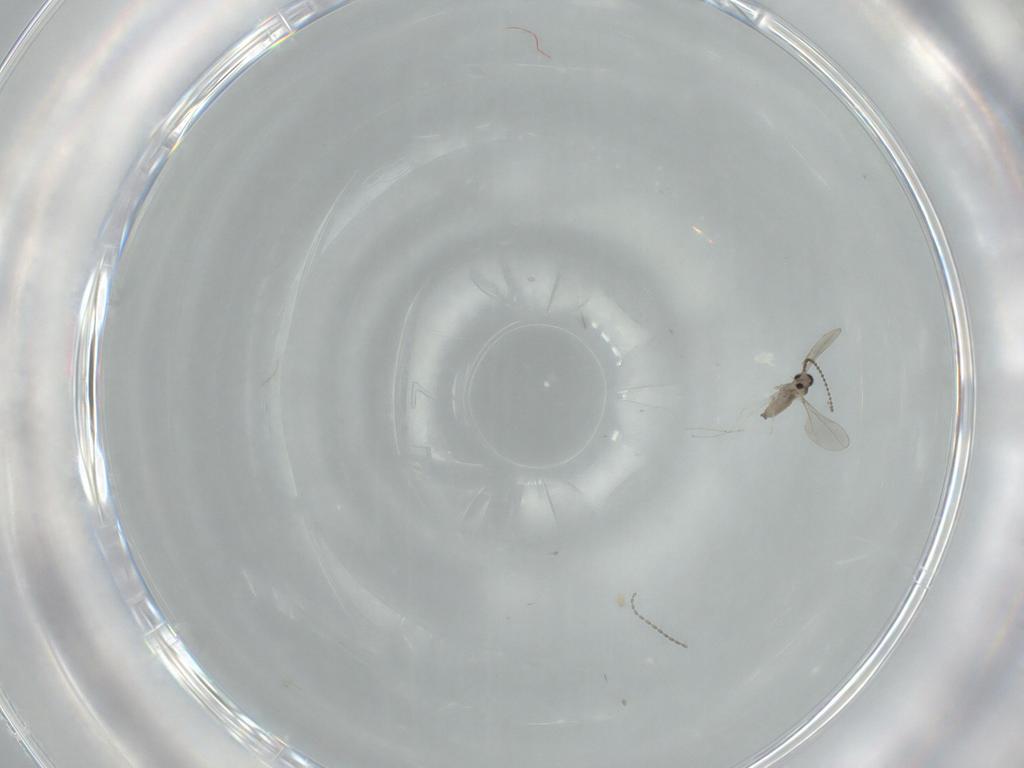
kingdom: Animalia
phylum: Arthropoda
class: Insecta
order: Diptera
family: Cecidomyiidae
